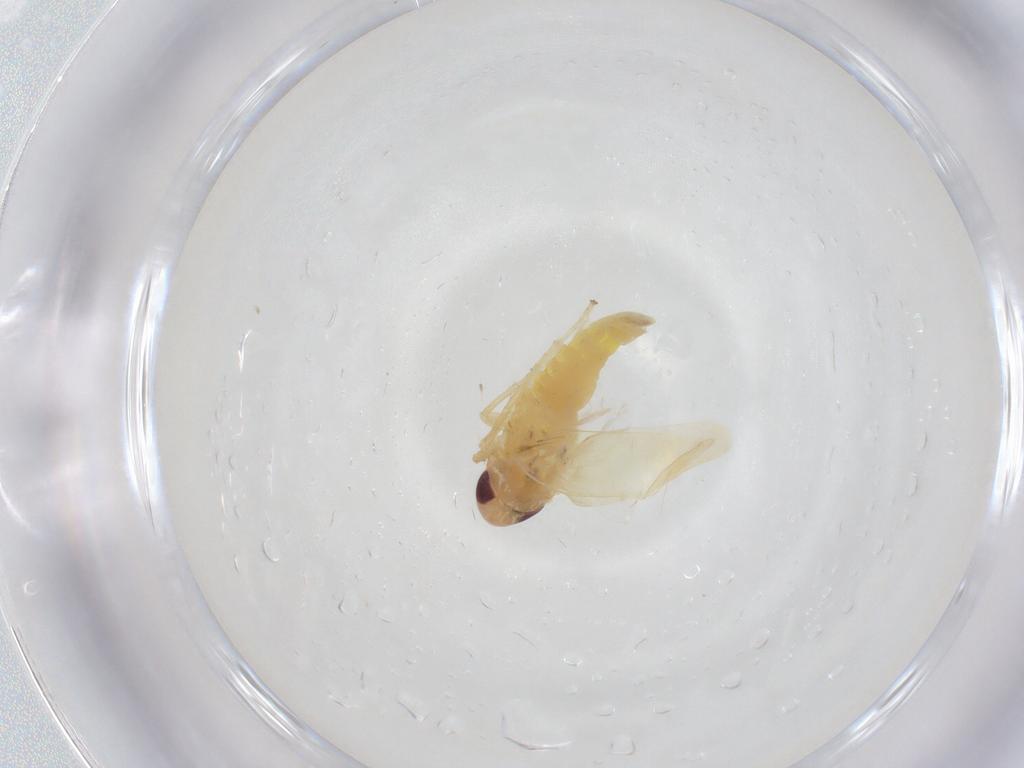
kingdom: Animalia
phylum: Arthropoda
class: Insecta
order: Hemiptera
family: Cicadellidae
